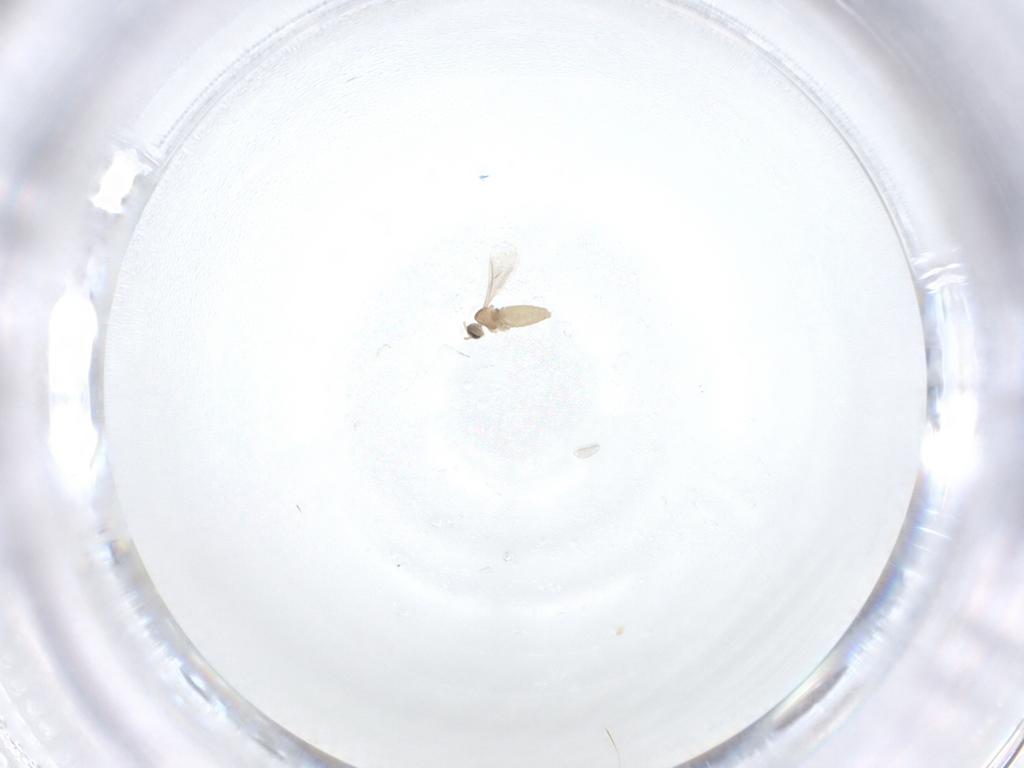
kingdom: Animalia
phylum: Arthropoda
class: Insecta
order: Diptera
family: Cecidomyiidae
